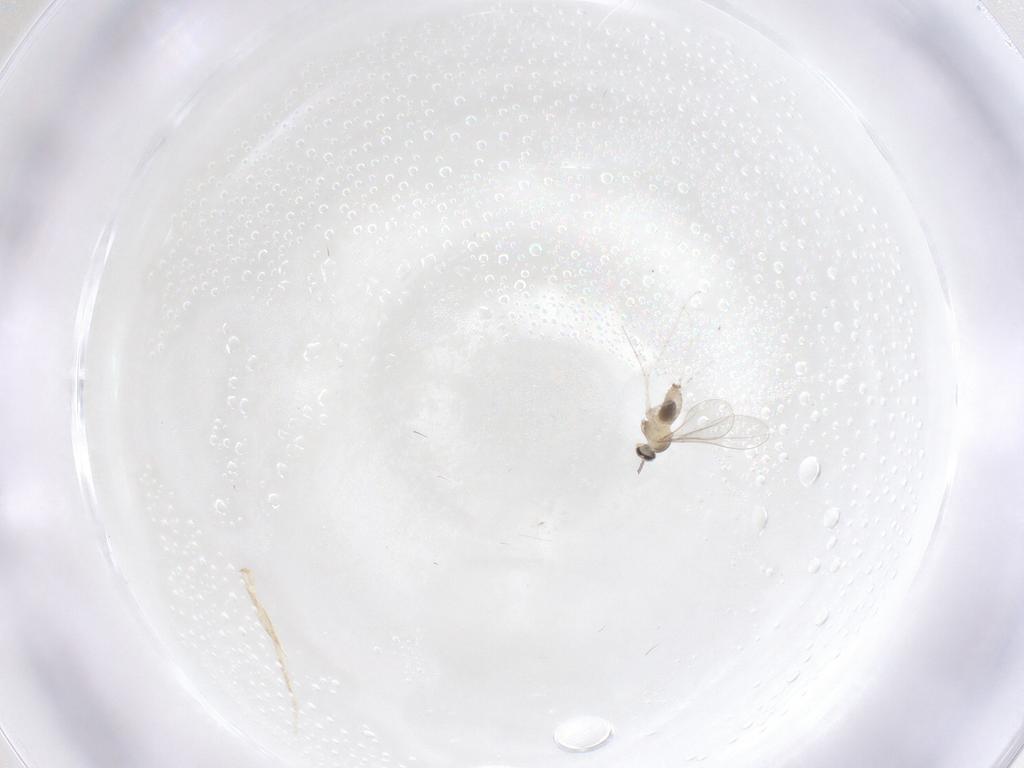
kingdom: Animalia
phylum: Arthropoda
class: Insecta
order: Diptera
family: Cecidomyiidae
